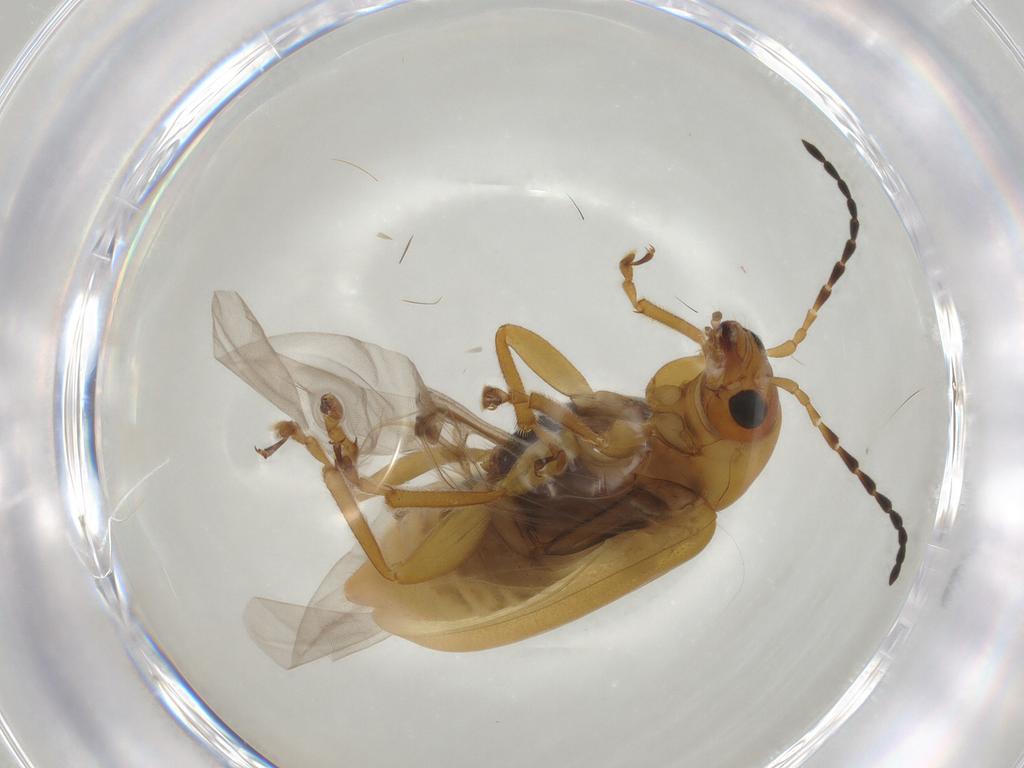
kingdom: Animalia
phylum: Arthropoda
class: Insecta
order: Coleoptera
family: Chrysomelidae
